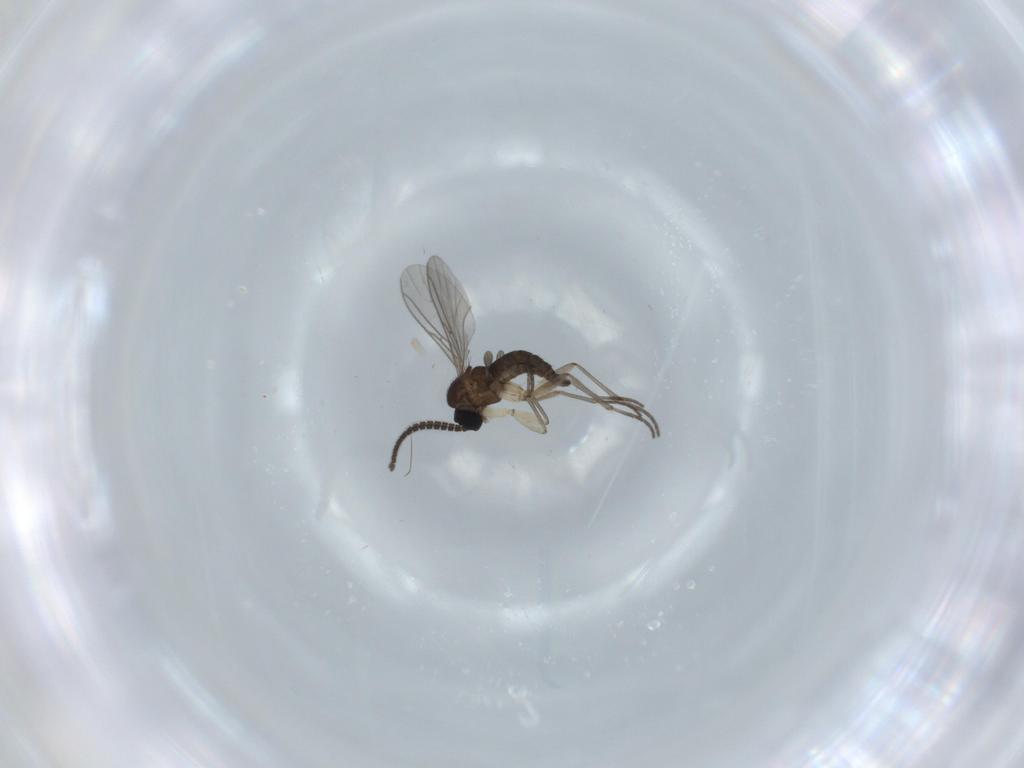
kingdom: Animalia
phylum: Arthropoda
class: Insecta
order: Diptera
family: Sciaridae
